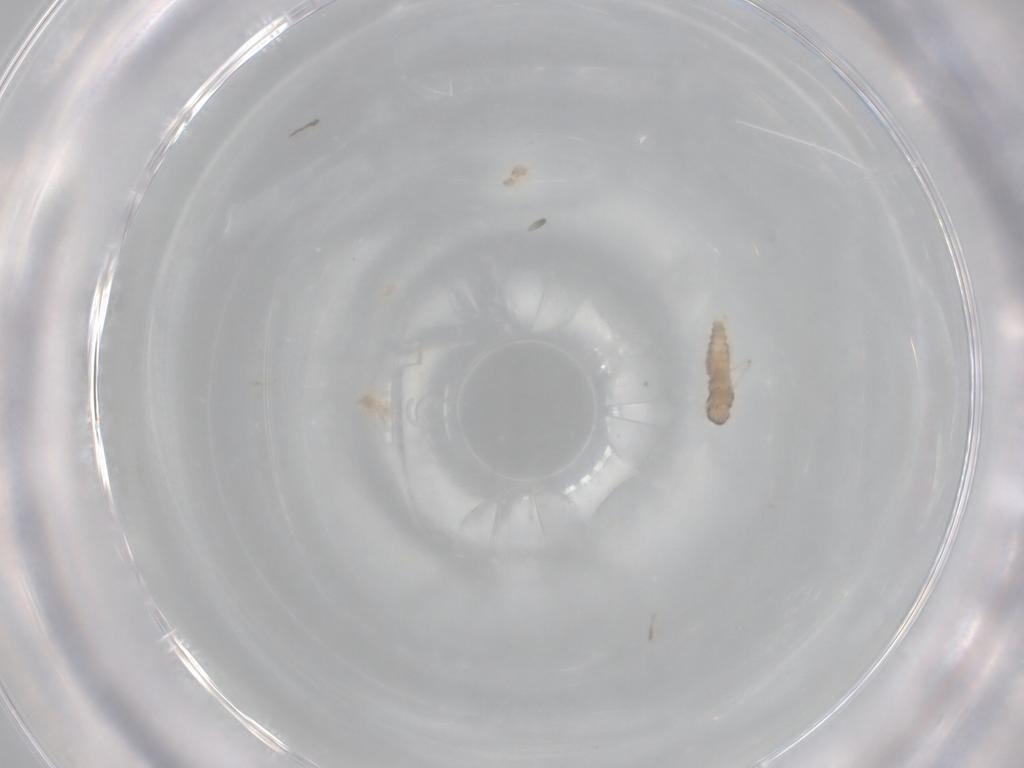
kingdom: Animalia
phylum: Arthropoda
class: Insecta
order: Diptera
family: Cecidomyiidae
